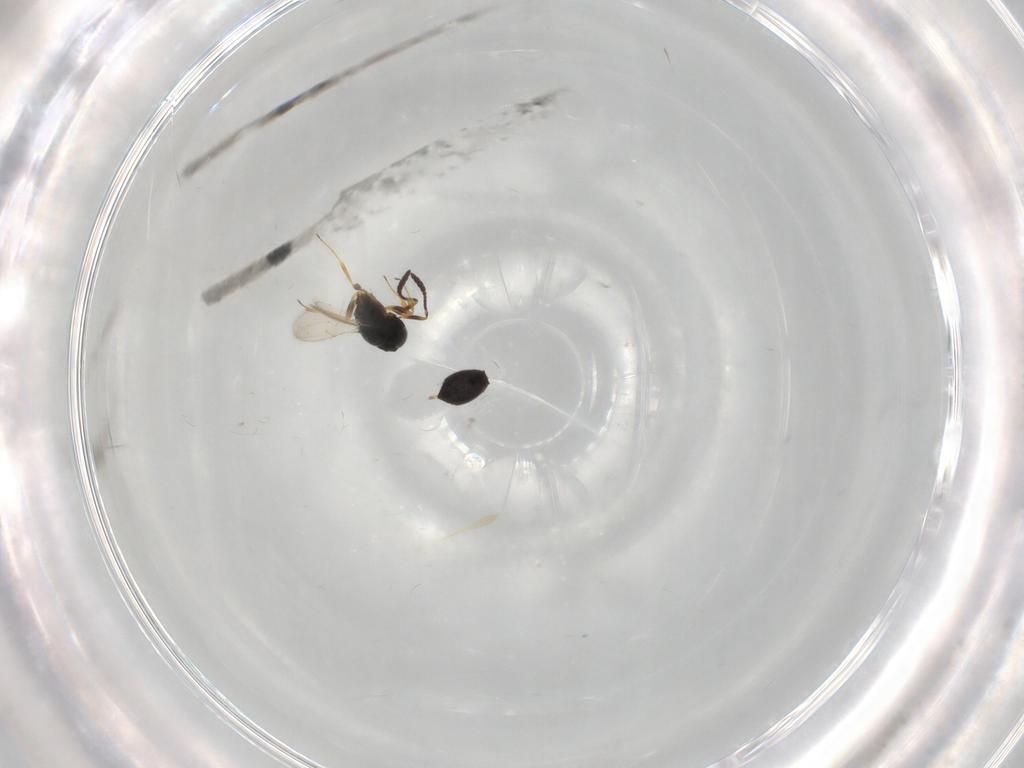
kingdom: Animalia
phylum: Arthropoda
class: Insecta
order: Hymenoptera
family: Scelionidae
